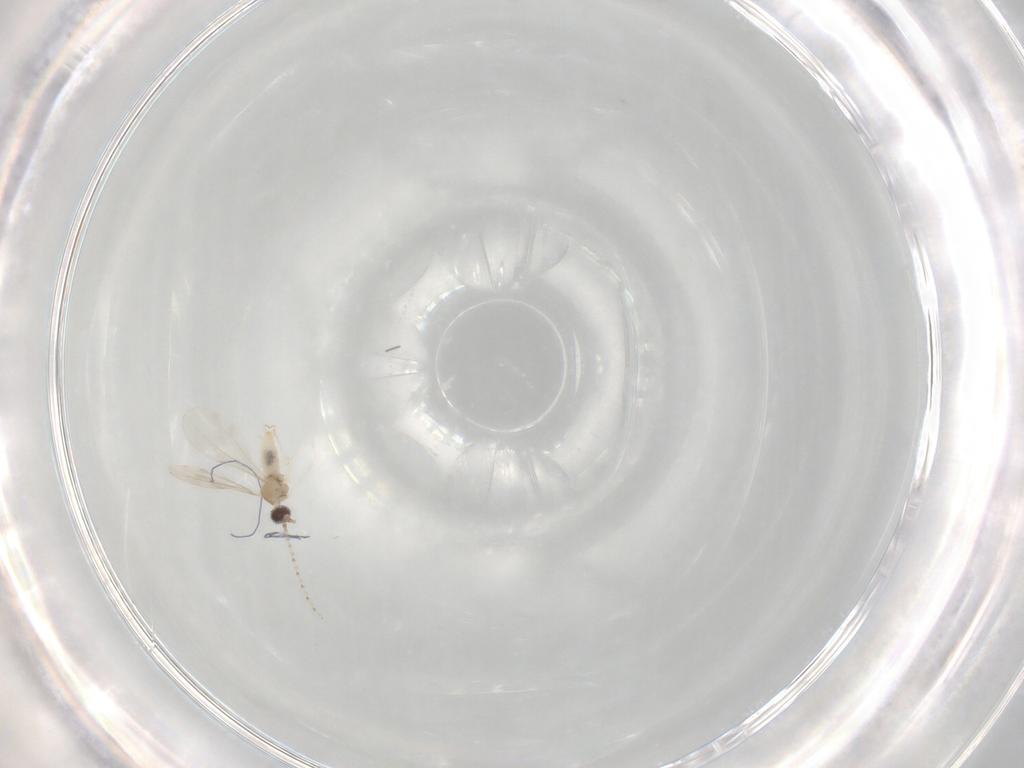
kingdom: Animalia
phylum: Arthropoda
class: Insecta
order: Diptera
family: Cecidomyiidae
